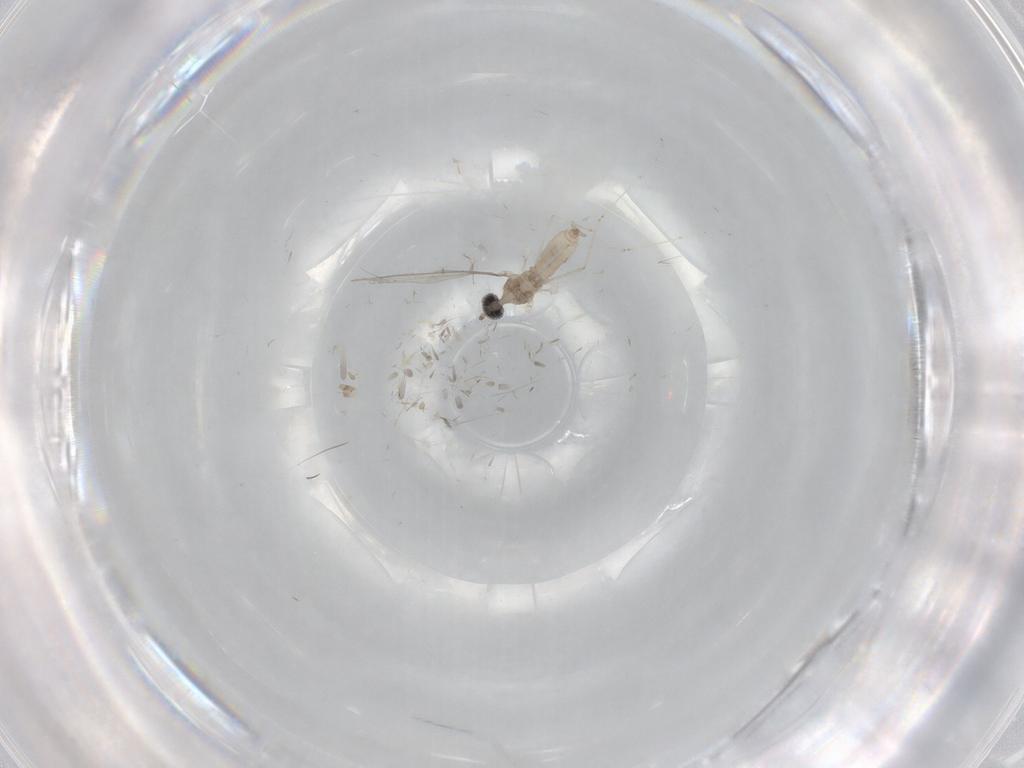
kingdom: Animalia
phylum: Arthropoda
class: Insecta
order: Diptera
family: Cecidomyiidae
